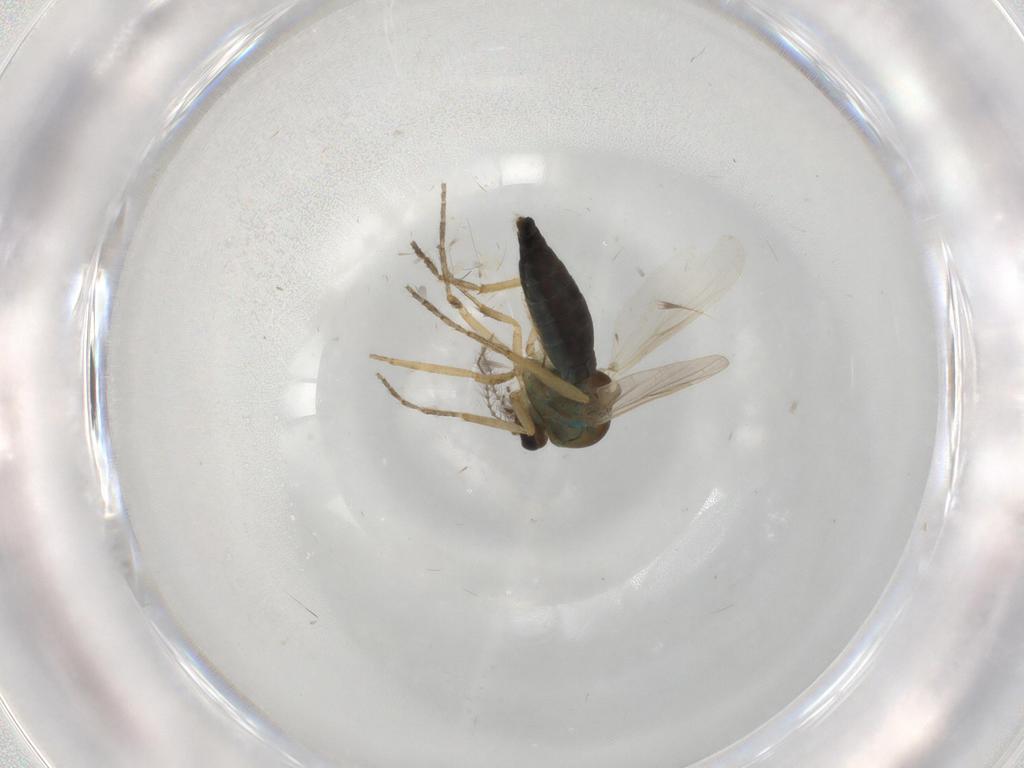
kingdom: Animalia
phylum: Arthropoda
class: Insecta
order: Diptera
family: Ceratopogonidae
